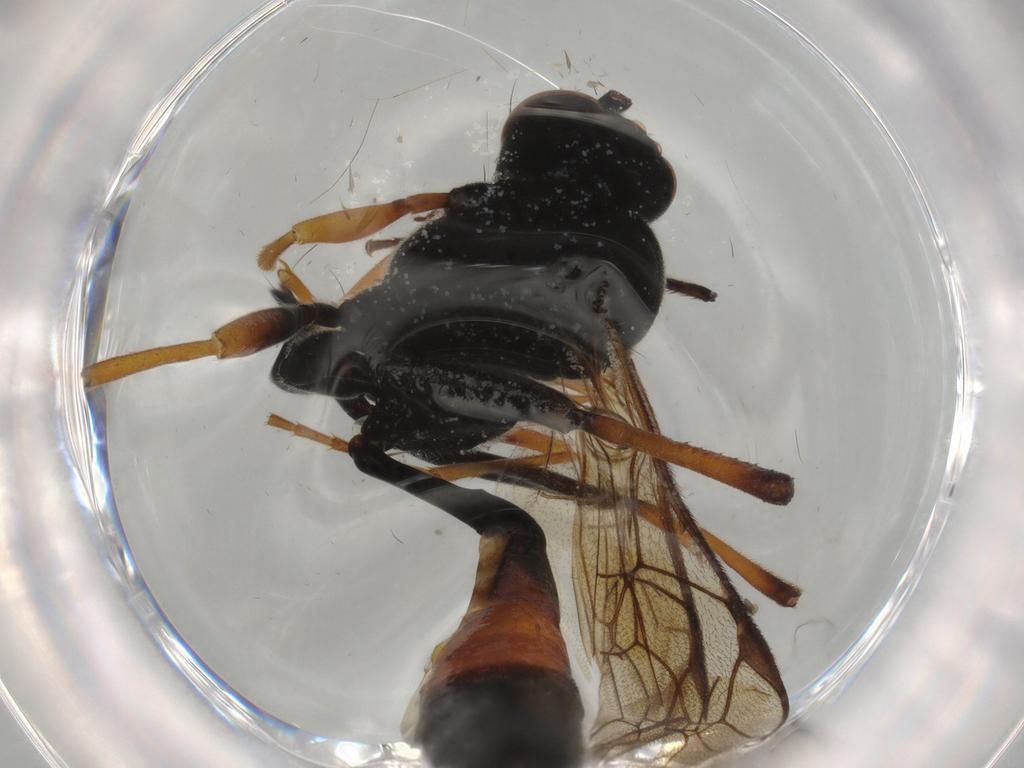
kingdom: Animalia
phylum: Arthropoda
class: Insecta
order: Hymenoptera
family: Ichneumonidae
